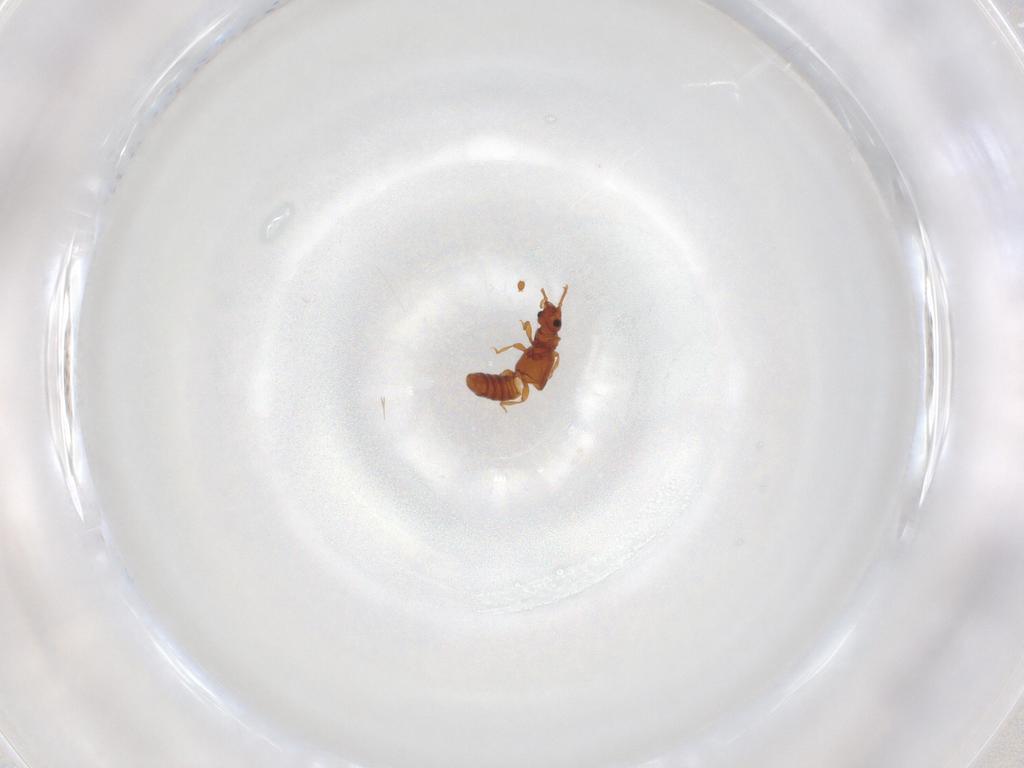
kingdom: Animalia
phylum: Arthropoda
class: Insecta
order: Coleoptera
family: Staphylinidae
